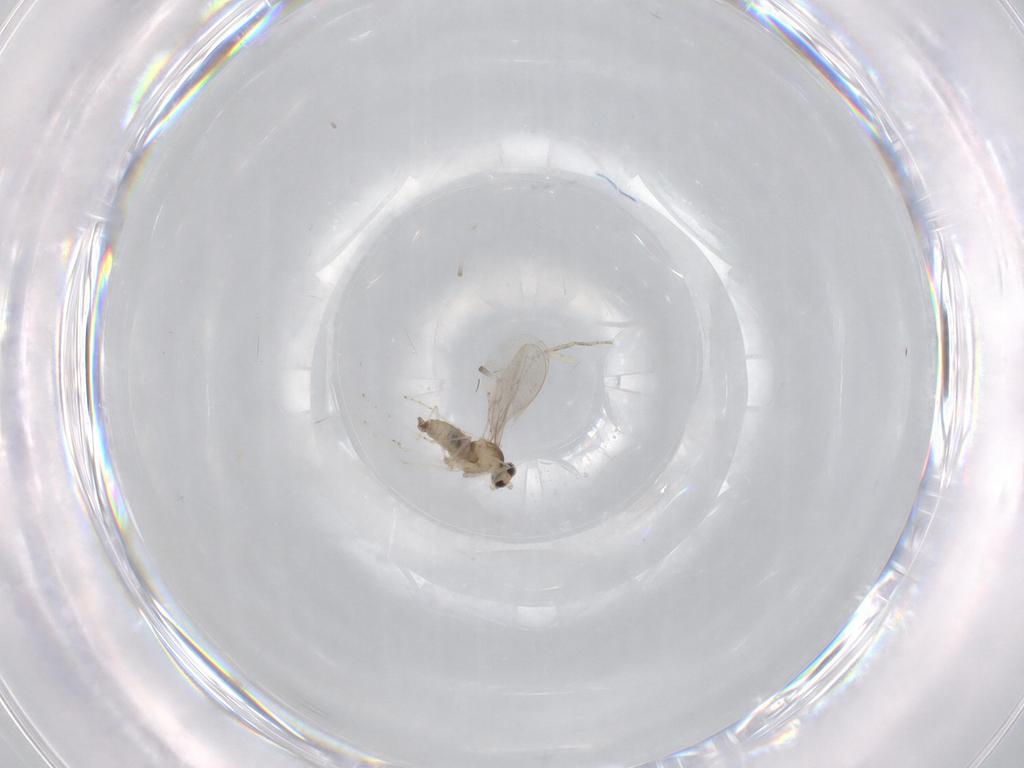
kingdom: Animalia
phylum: Arthropoda
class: Insecta
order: Diptera
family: Cecidomyiidae
